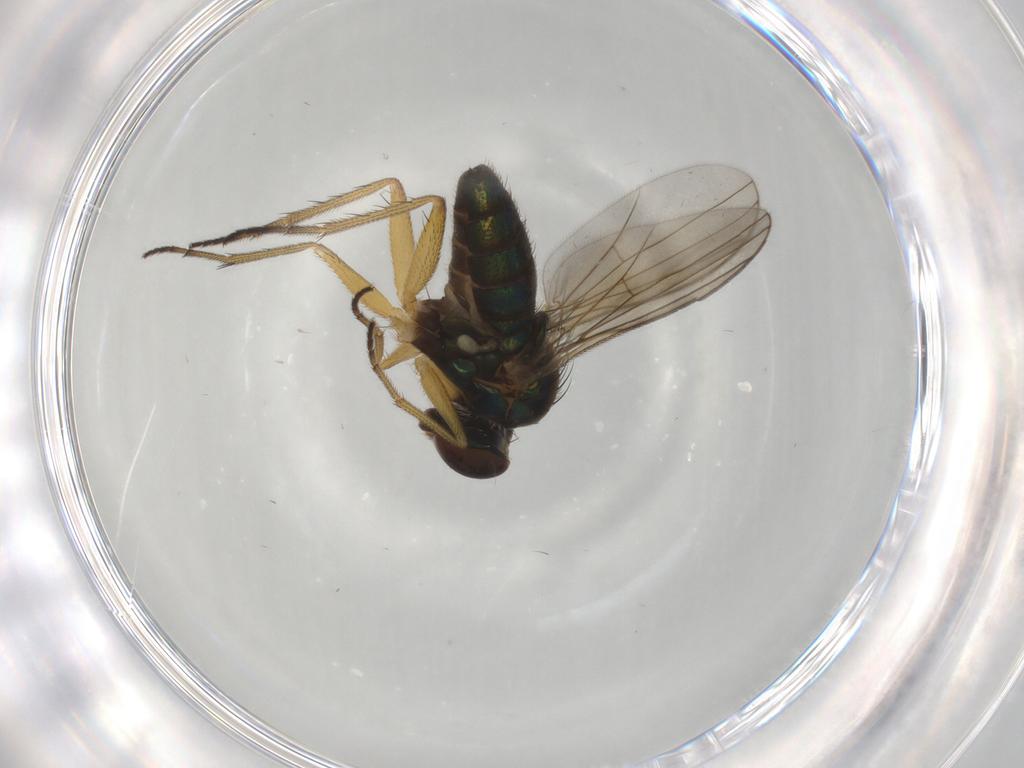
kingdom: Animalia
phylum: Arthropoda
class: Insecta
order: Diptera
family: Dolichopodidae
